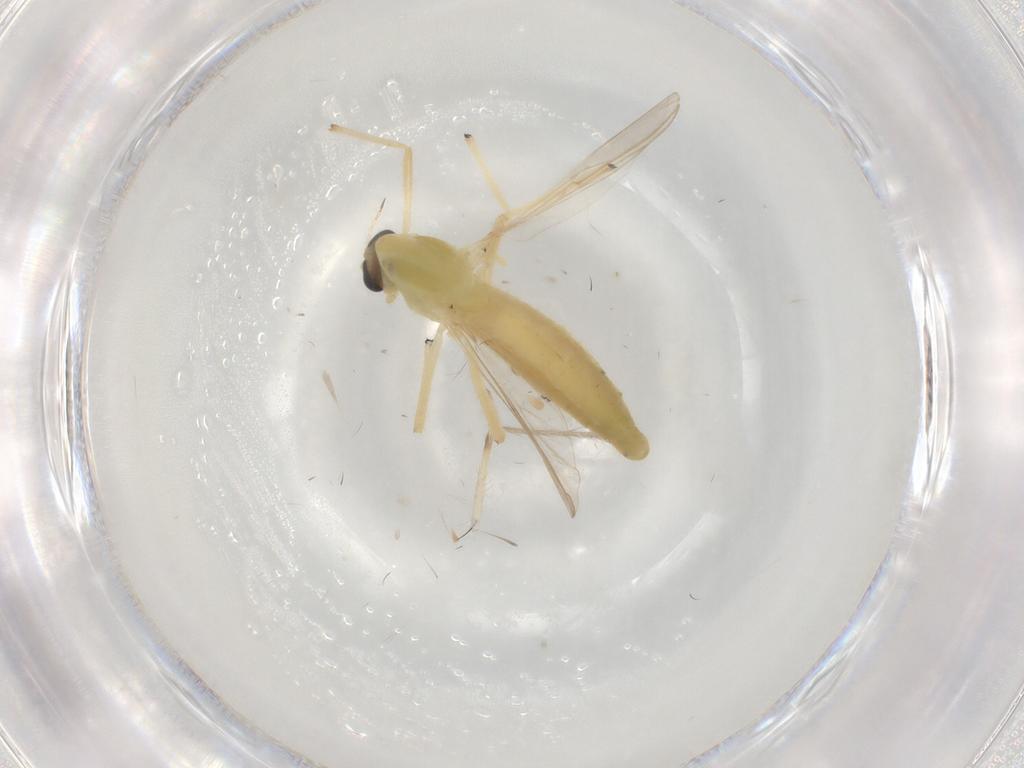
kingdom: Animalia
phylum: Arthropoda
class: Insecta
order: Diptera
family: Chironomidae
